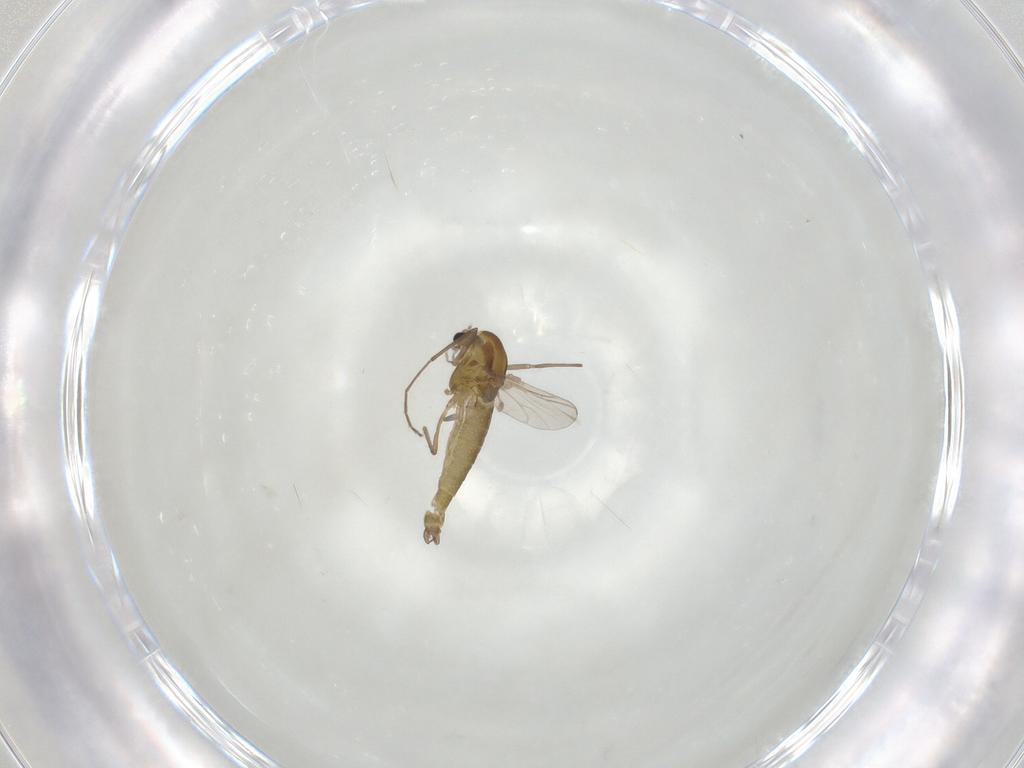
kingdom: Animalia
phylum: Arthropoda
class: Insecta
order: Diptera
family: Chironomidae
